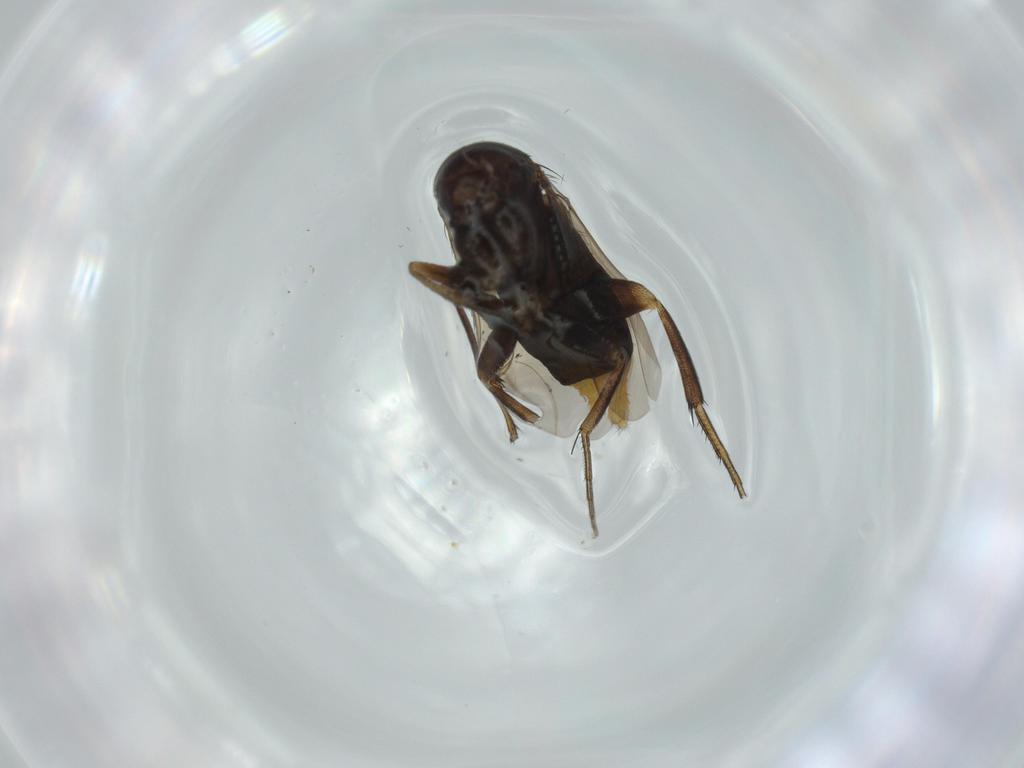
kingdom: Animalia
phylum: Arthropoda
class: Insecta
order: Diptera
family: Phoridae
